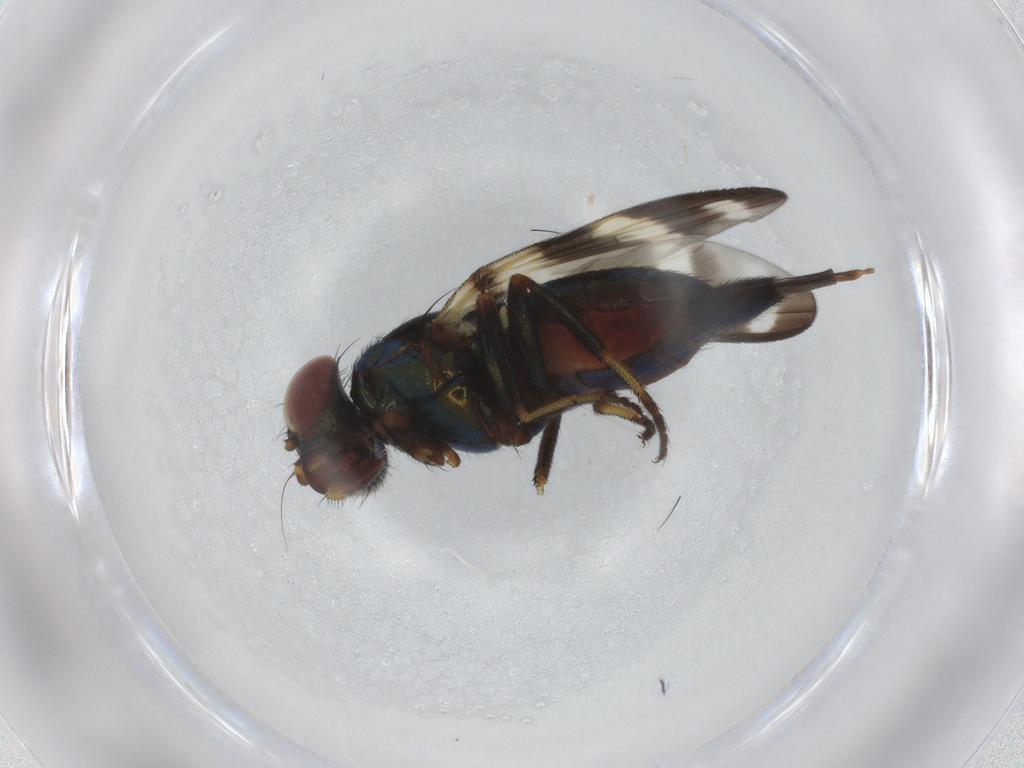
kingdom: Animalia
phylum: Arthropoda
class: Insecta
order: Diptera
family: Ulidiidae
